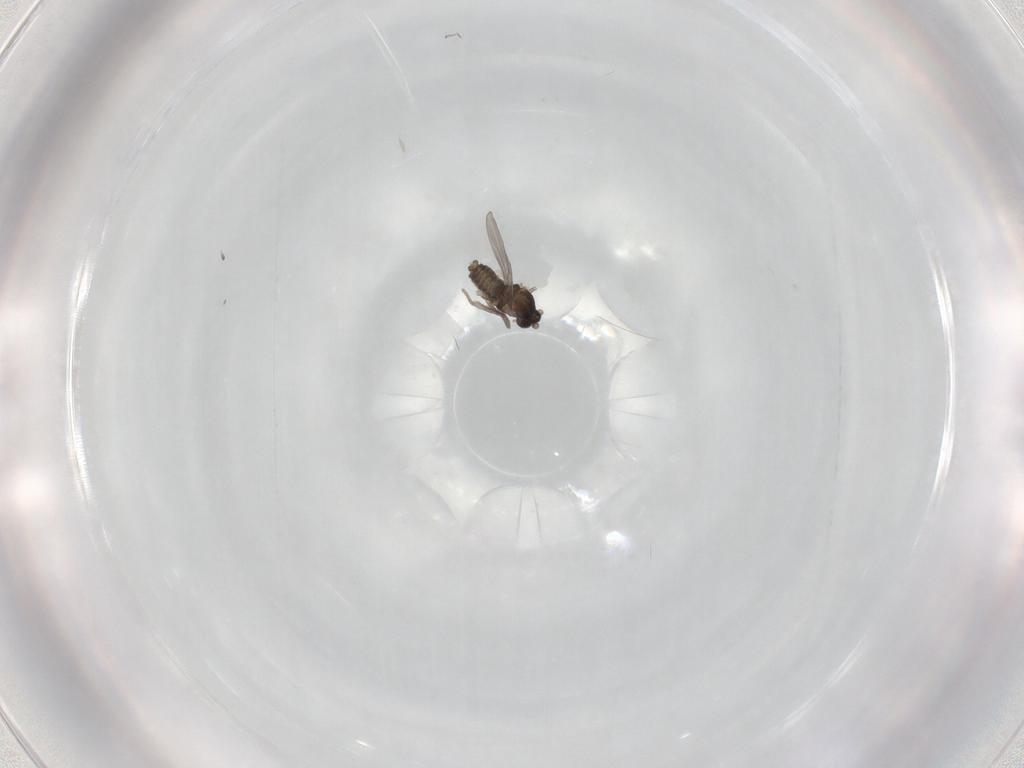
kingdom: Animalia
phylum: Arthropoda
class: Insecta
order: Diptera
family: Cecidomyiidae
